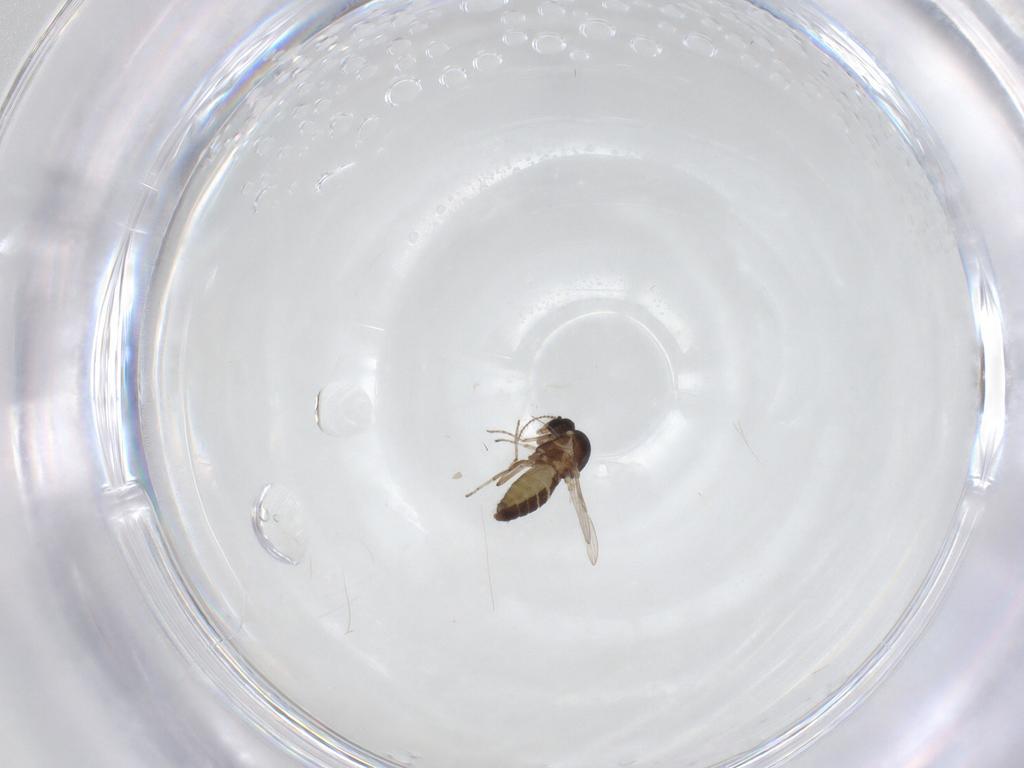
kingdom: Animalia
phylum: Arthropoda
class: Insecta
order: Diptera
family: Ceratopogonidae
